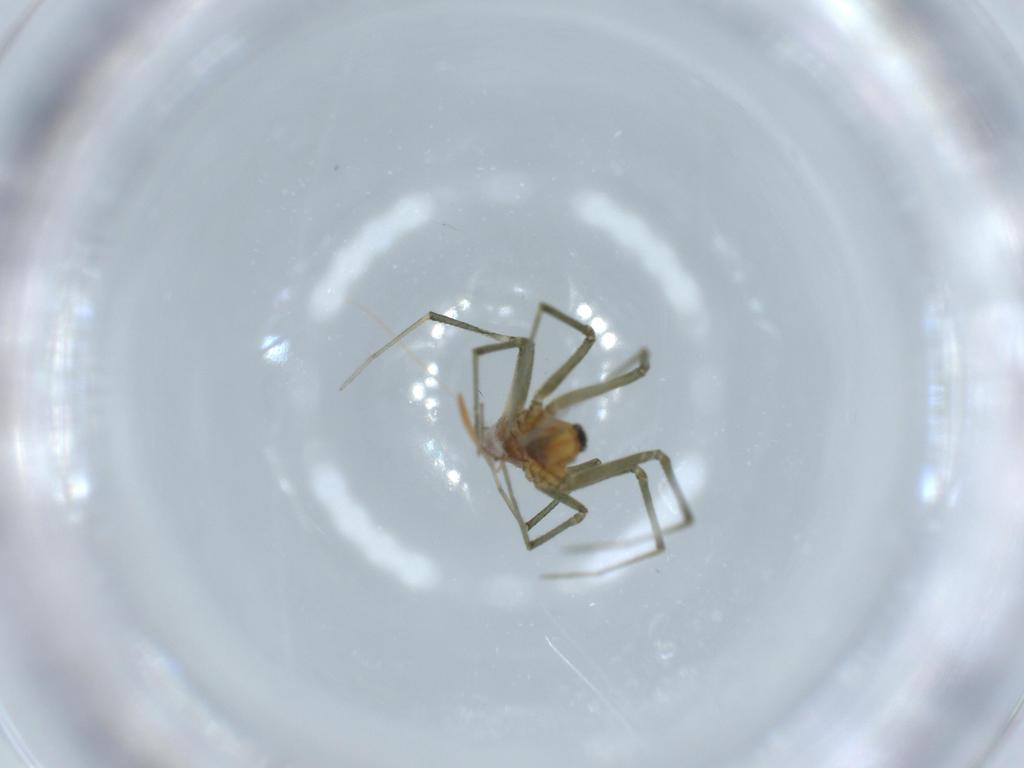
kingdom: Animalia
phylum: Arthropoda
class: Arachnida
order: Araneae
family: Linyphiidae
